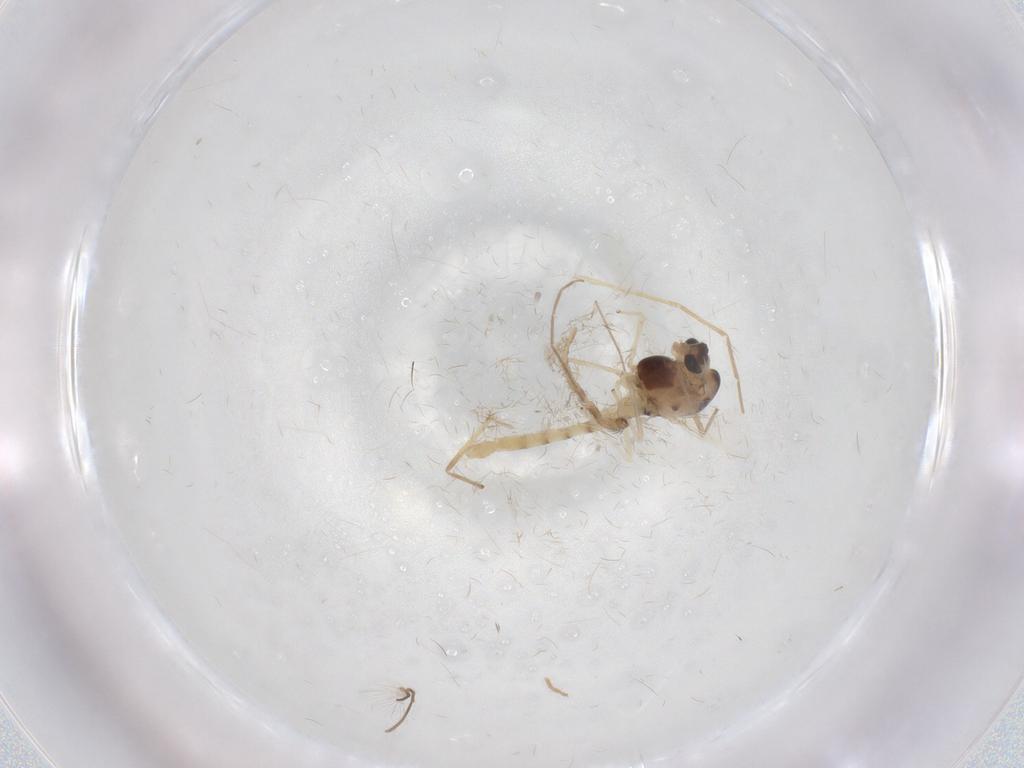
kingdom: Animalia
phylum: Arthropoda
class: Insecta
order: Diptera
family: Chironomidae
